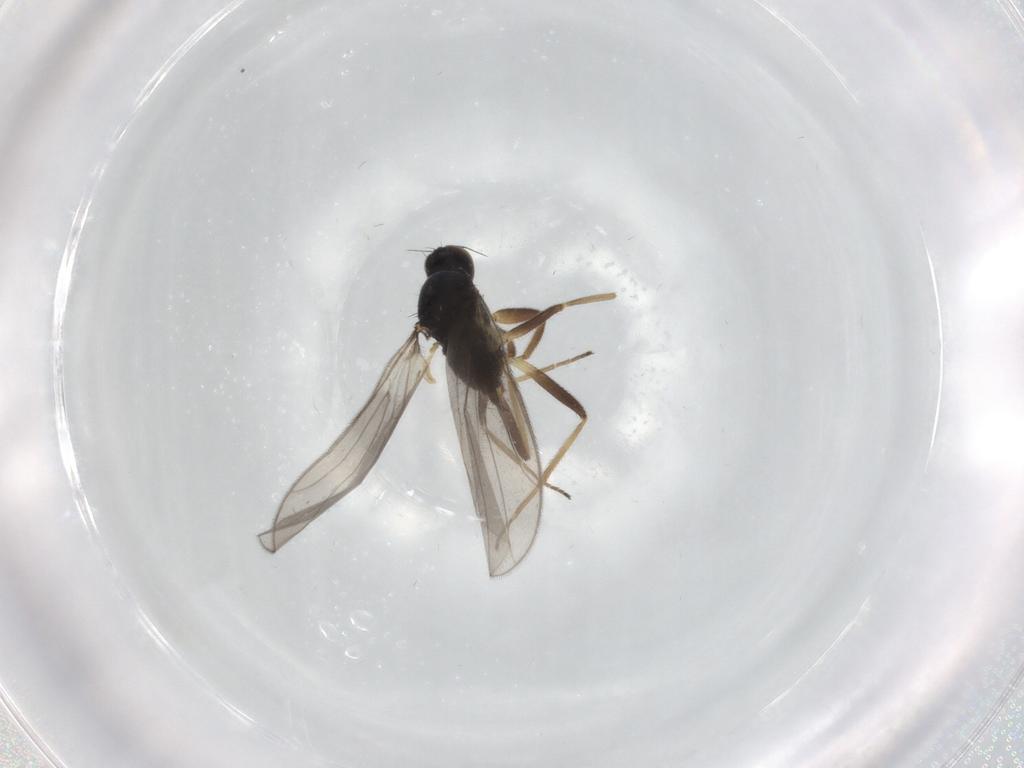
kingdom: Animalia
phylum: Arthropoda
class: Insecta
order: Diptera
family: Hybotidae
